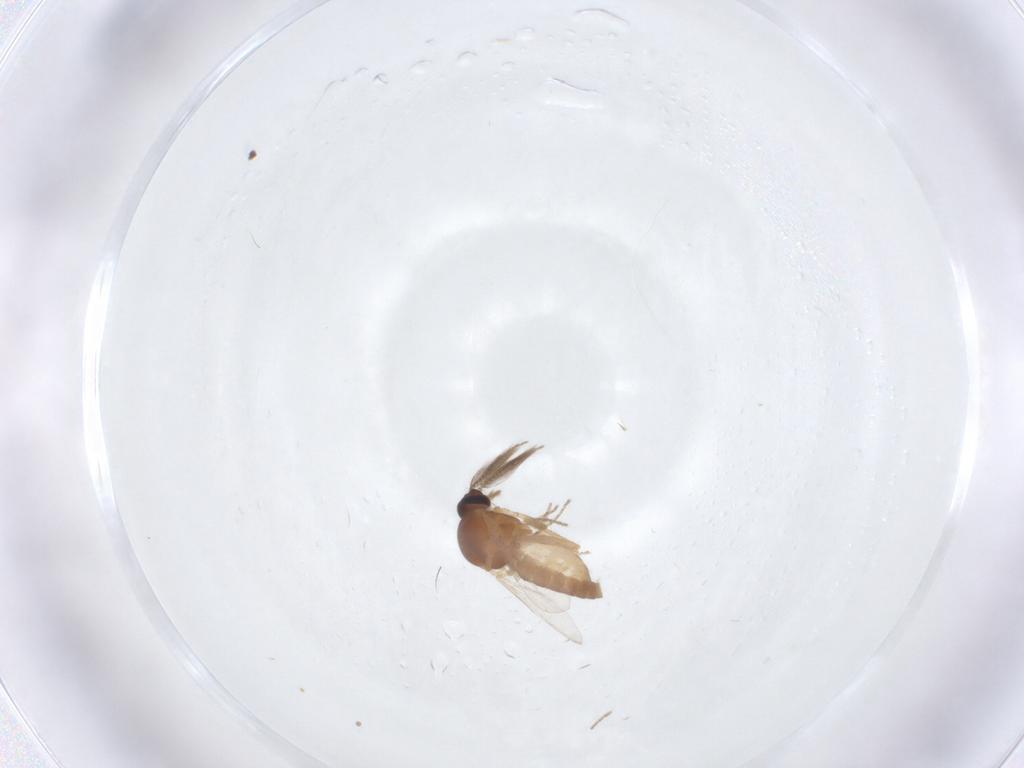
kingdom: Animalia
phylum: Arthropoda
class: Insecta
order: Diptera
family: Ceratopogonidae
